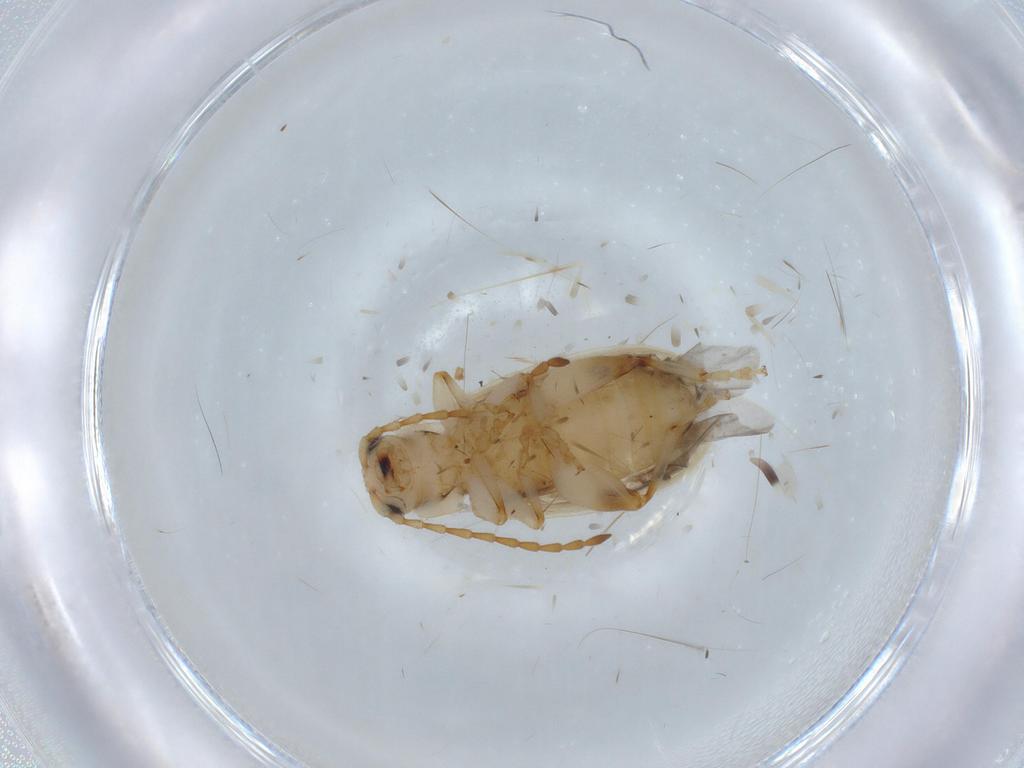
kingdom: Animalia
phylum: Arthropoda
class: Insecta
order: Coleoptera
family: Chrysomelidae
